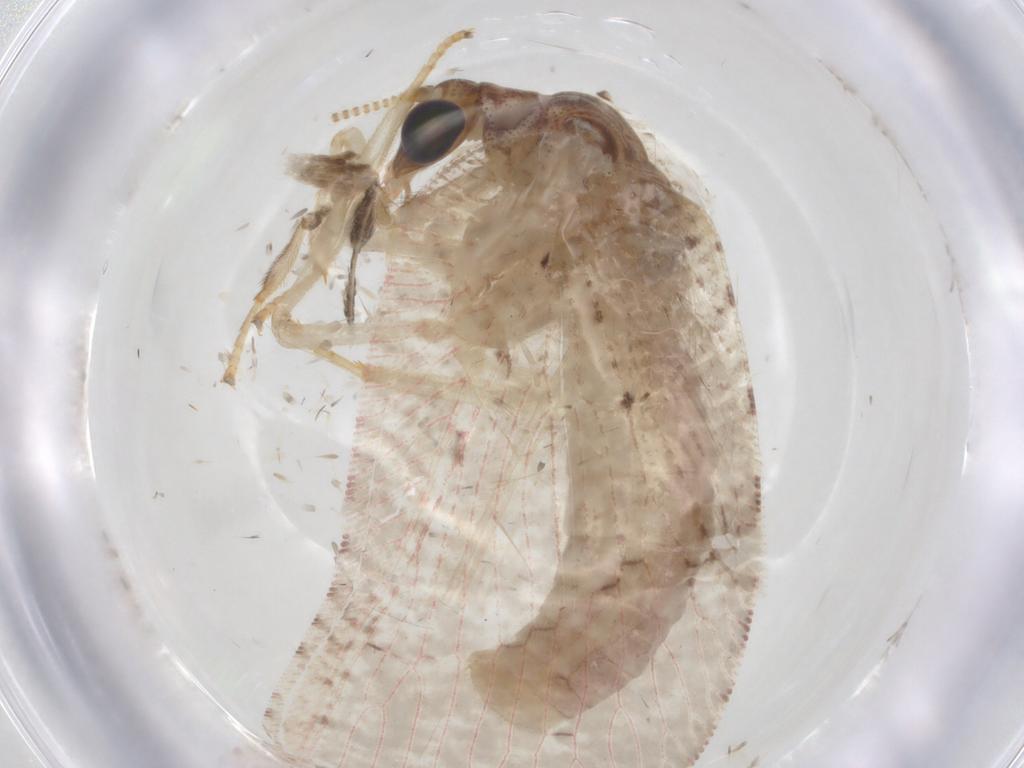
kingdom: Animalia
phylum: Arthropoda
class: Insecta
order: Neuroptera
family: Hemerobiidae
